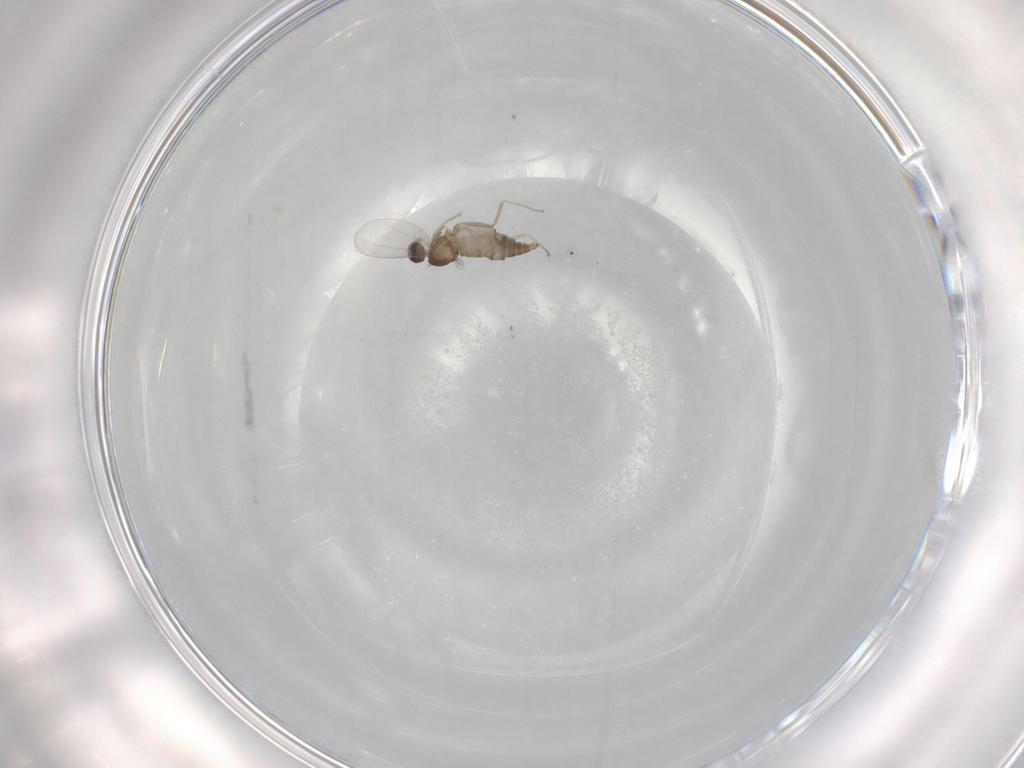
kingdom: Animalia
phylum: Arthropoda
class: Insecta
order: Diptera
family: Cecidomyiidae
